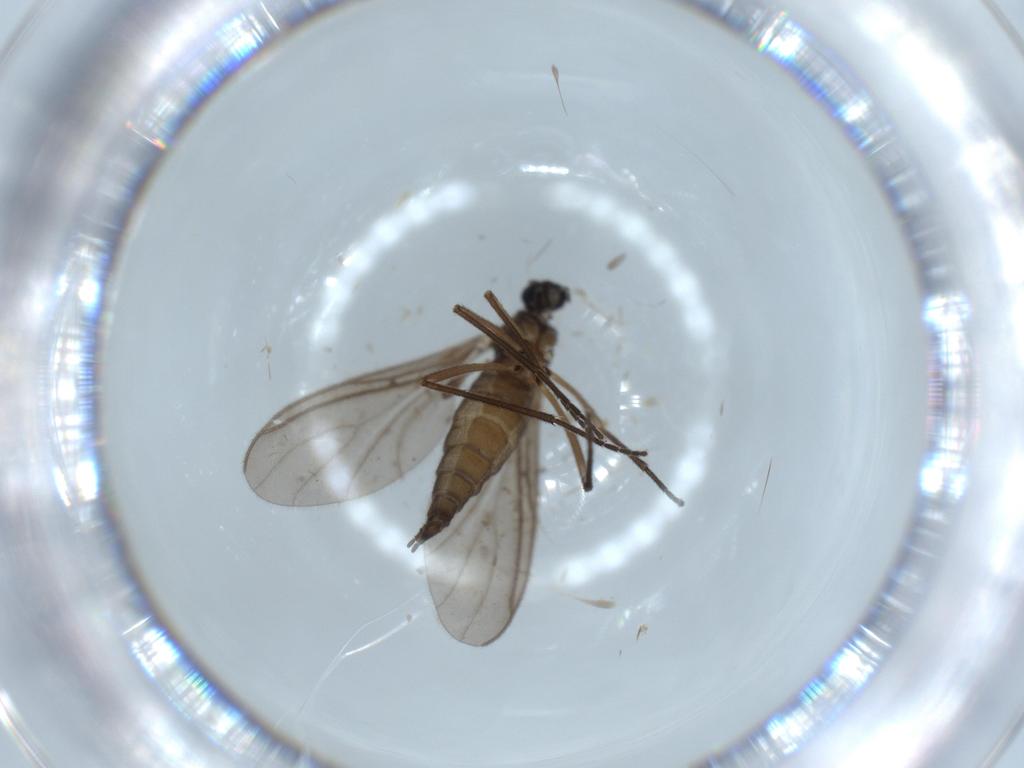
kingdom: Animalia
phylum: Arthropoda
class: Insecta
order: Diptera
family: Sciaridae
